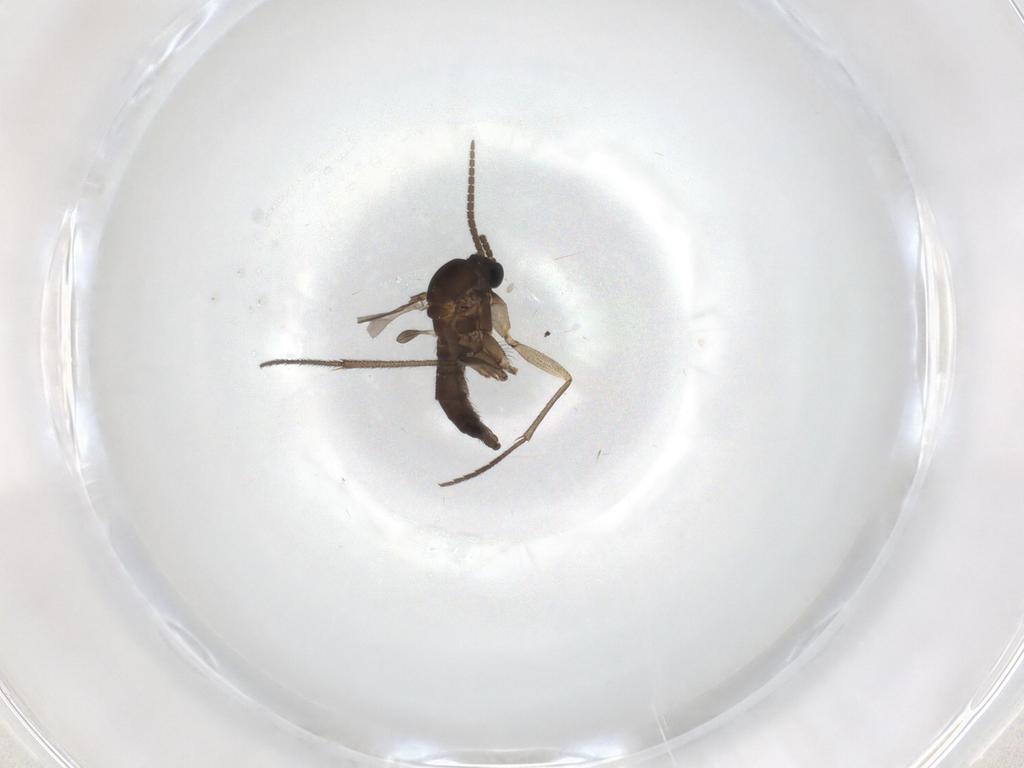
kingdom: Animalia
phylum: Arthropoda
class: Insecta
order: Diptera
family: Sciaridae
